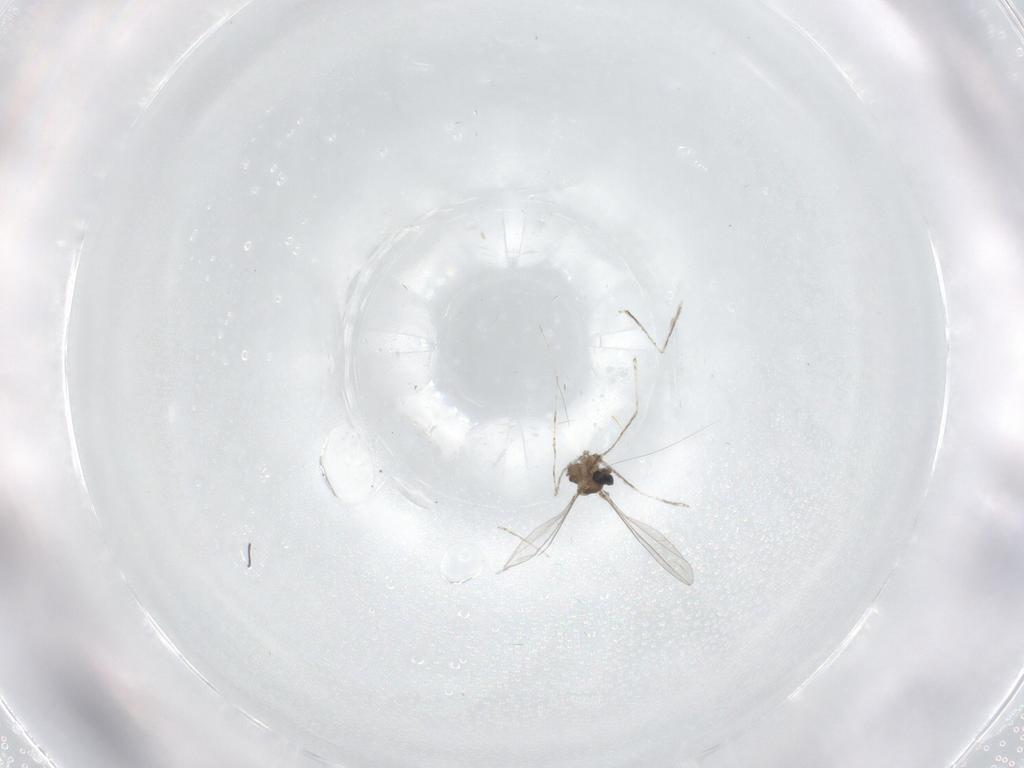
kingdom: Animalia
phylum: Arthropoda
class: Insecta
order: Diptera
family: Cecidomyiidae
